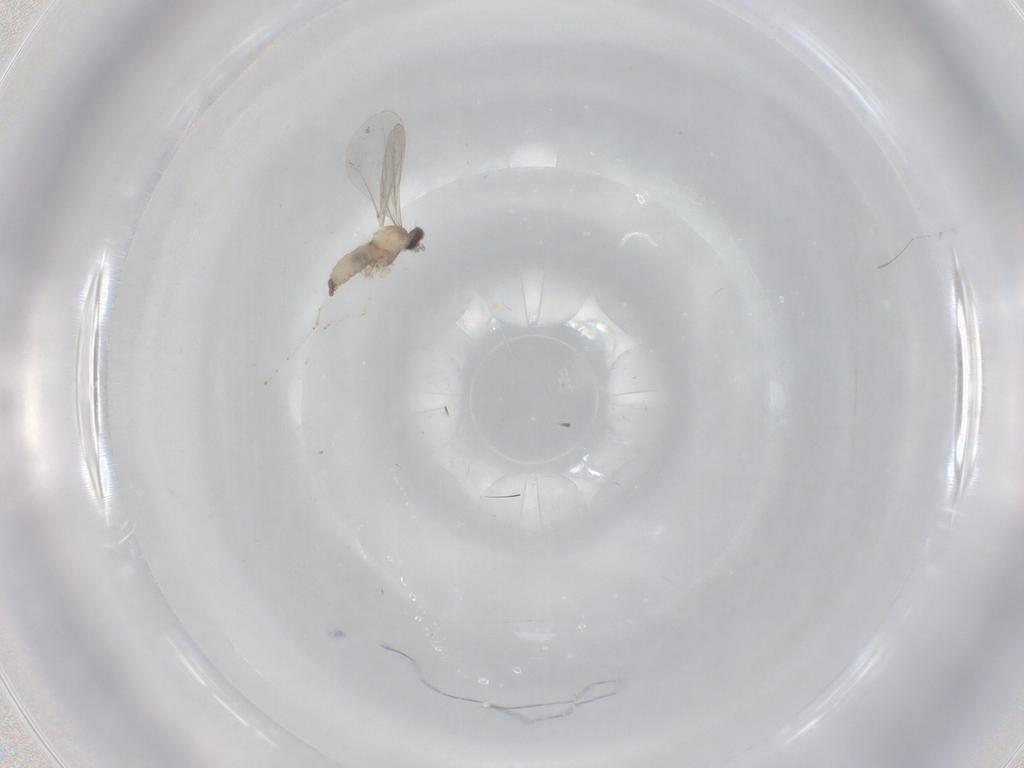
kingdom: Animalia
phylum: Arthropoda
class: Insecta
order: Diptera
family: Cecidomyiidae
